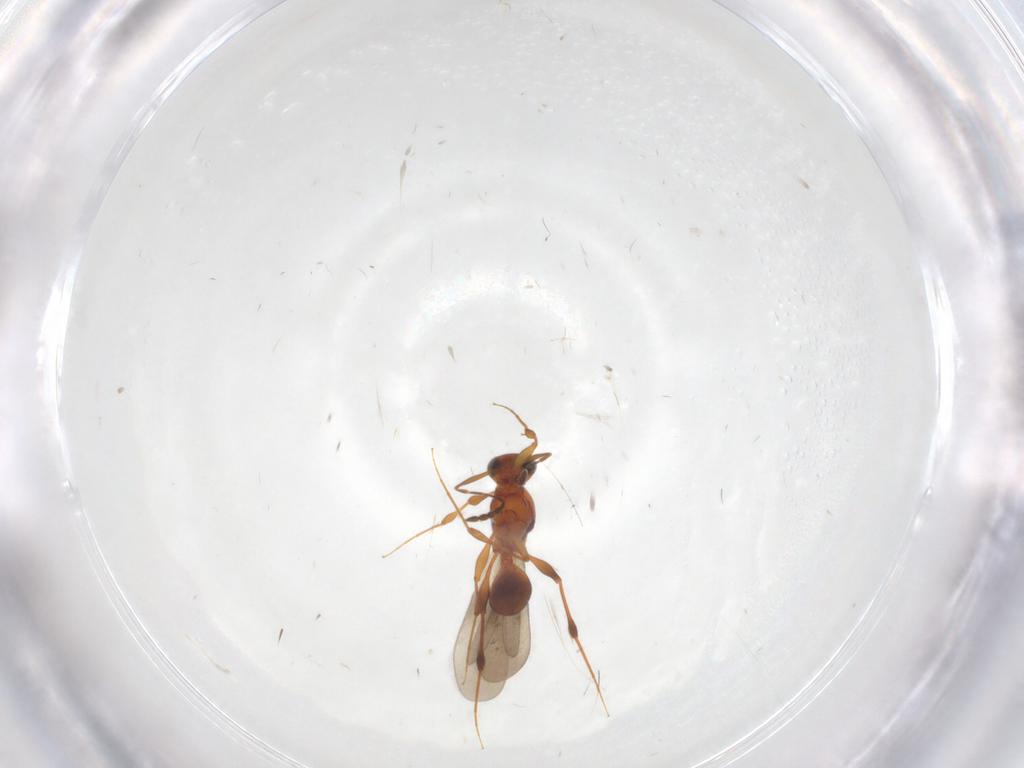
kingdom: Animalia
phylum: Arthropoda
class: Insecta
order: Hymenoptera
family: Platygastridae
